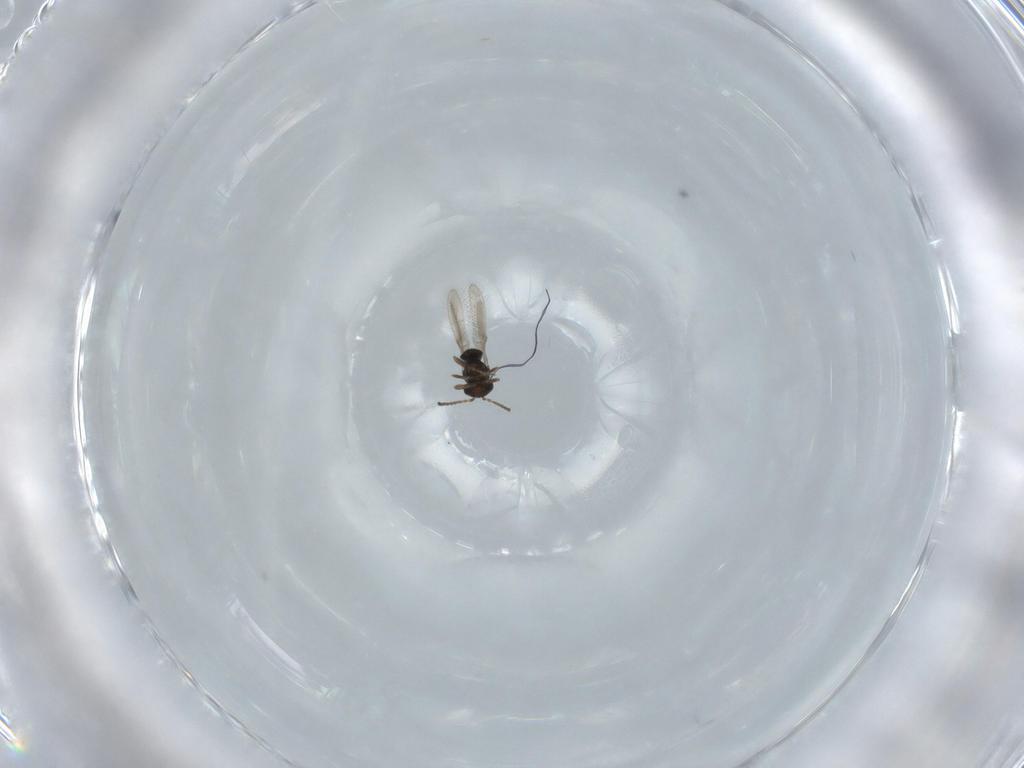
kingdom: Animalia
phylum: Arthropoda
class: Insecta
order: Hymenoptera
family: Scelionidae
